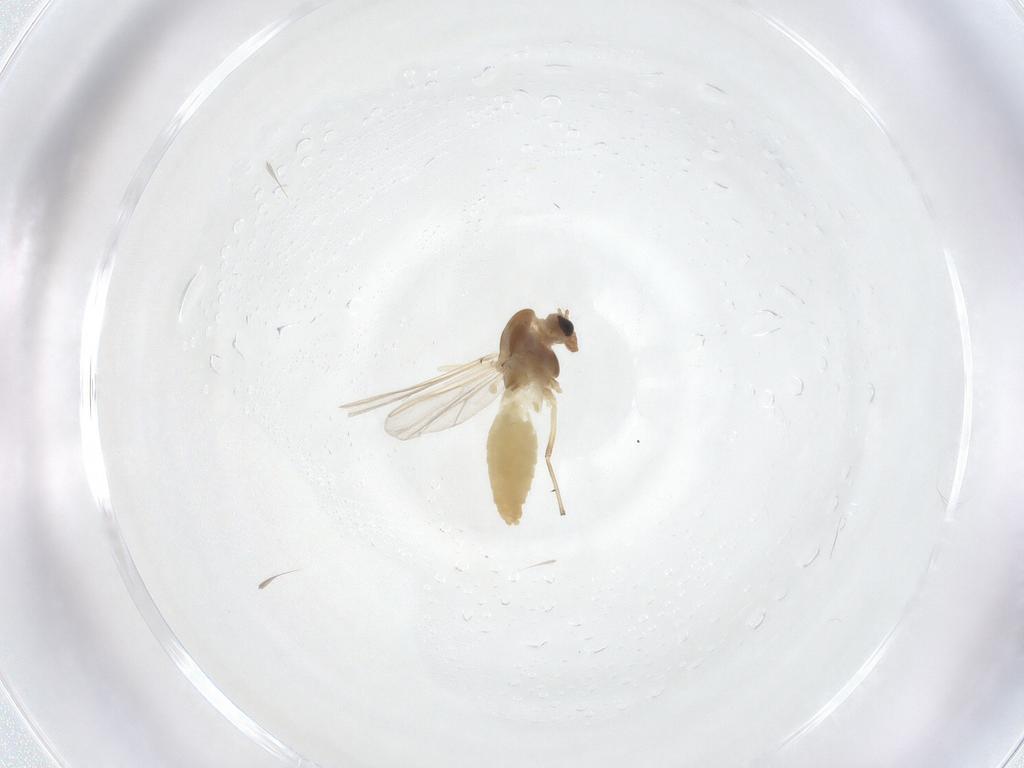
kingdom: Animalia
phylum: Arthropoda
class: Insecta
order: Diptera
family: Chironomidae
